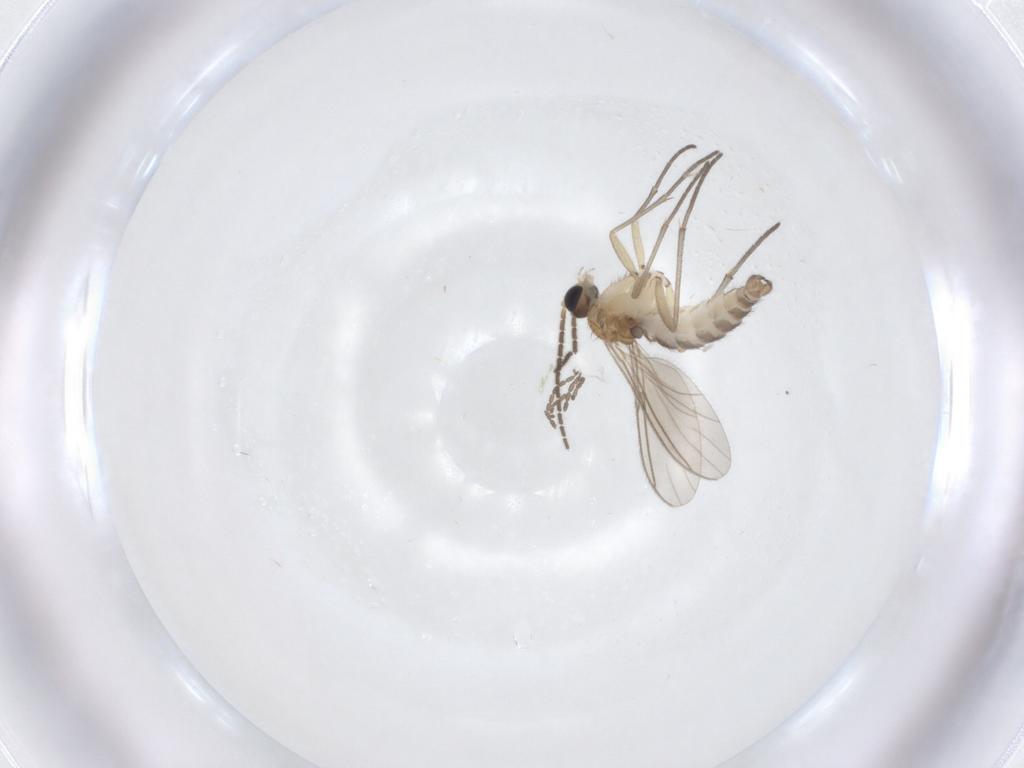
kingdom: Animalia
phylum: Arthropoda
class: Insecta
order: Diptera
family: Cecidomyiidae
